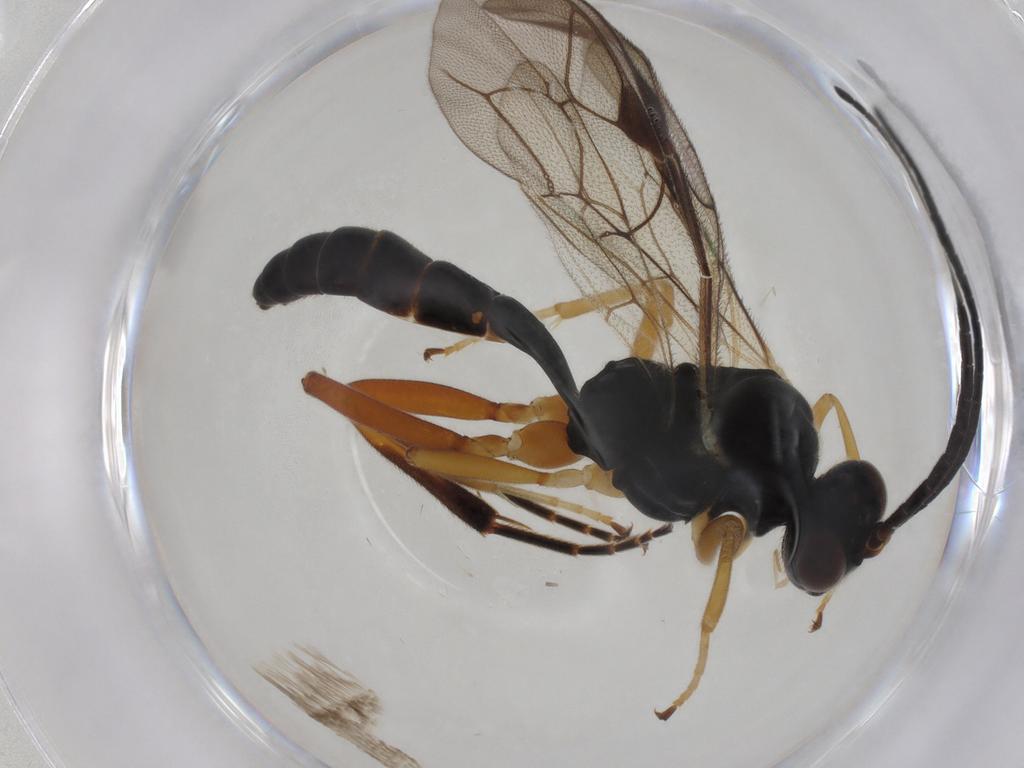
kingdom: Animalia
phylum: Arthropoda
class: Insecta
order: Hymenoptera
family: Ichneumonidae
